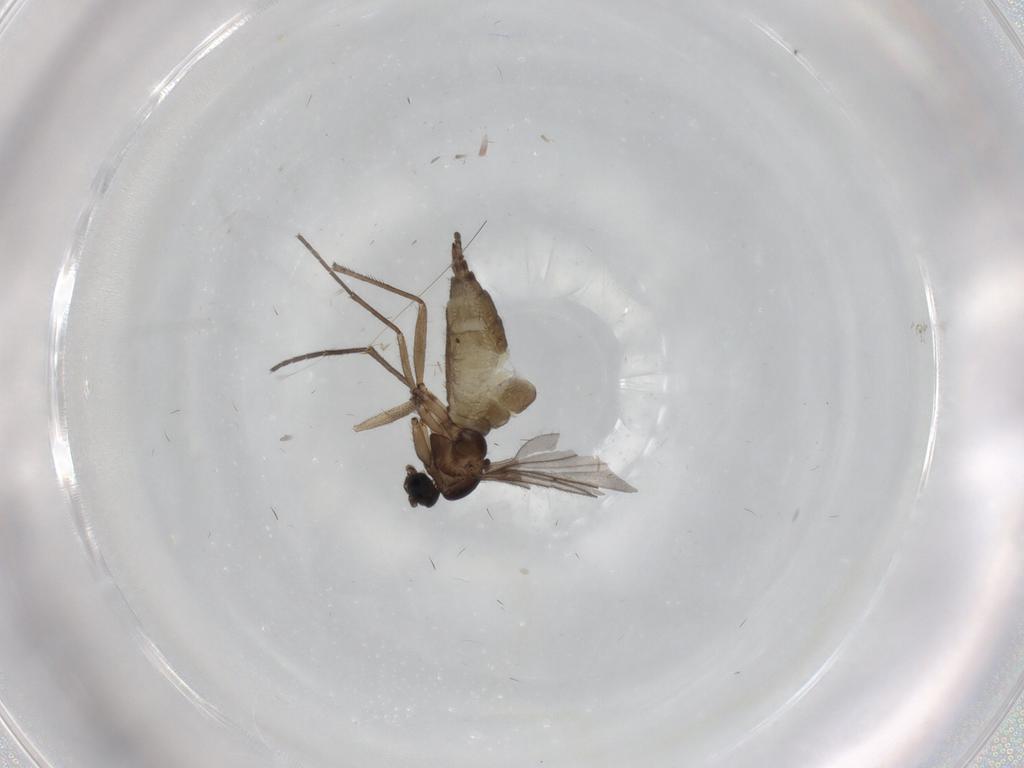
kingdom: Animalia
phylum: Arthropoda
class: Insecta
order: Diptera
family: Sciaridae
